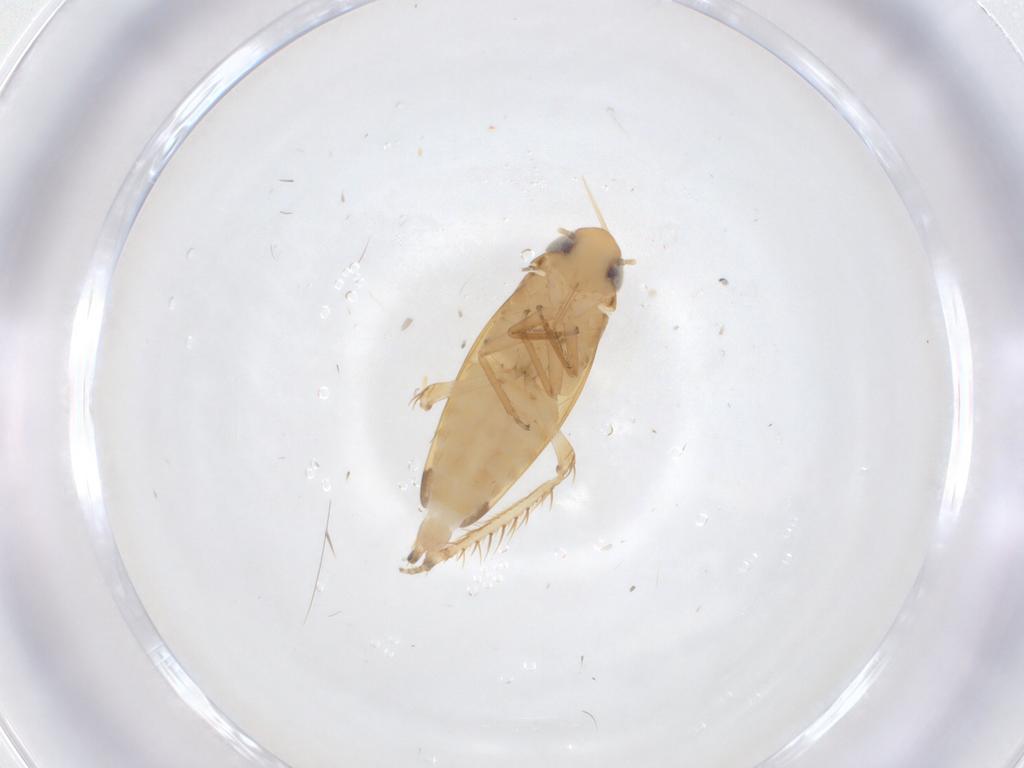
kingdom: Animalia
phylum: Arthropoda
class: Insecta
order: Hemiptera
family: Cicadellidae
